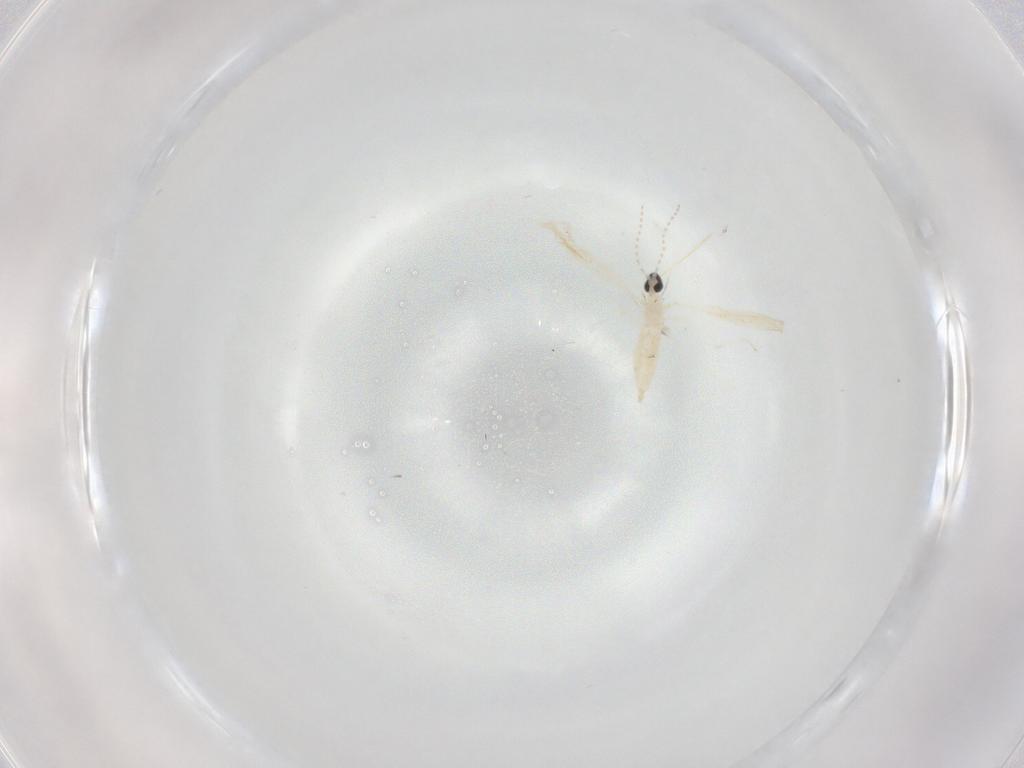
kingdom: Animalia
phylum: Arthropoda
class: Insecta
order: Diptera
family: Cecidomyiidae
